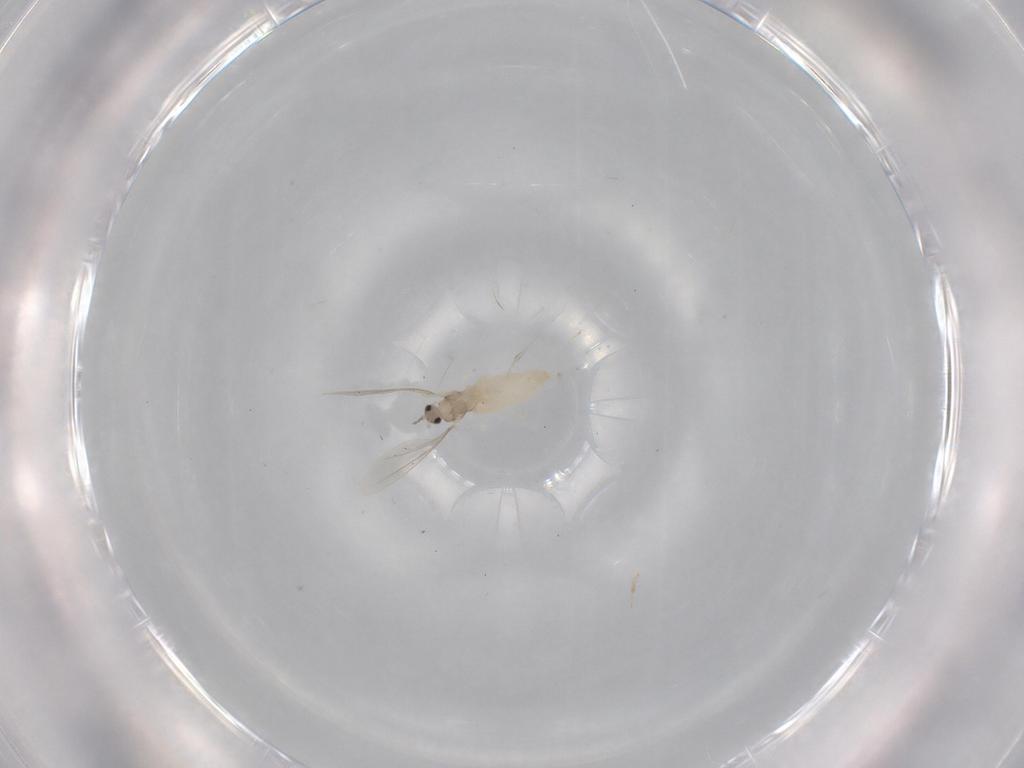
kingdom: Animalia
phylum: Arthropoda
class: Insecta
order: Diptera
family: Cecidomyiidae
